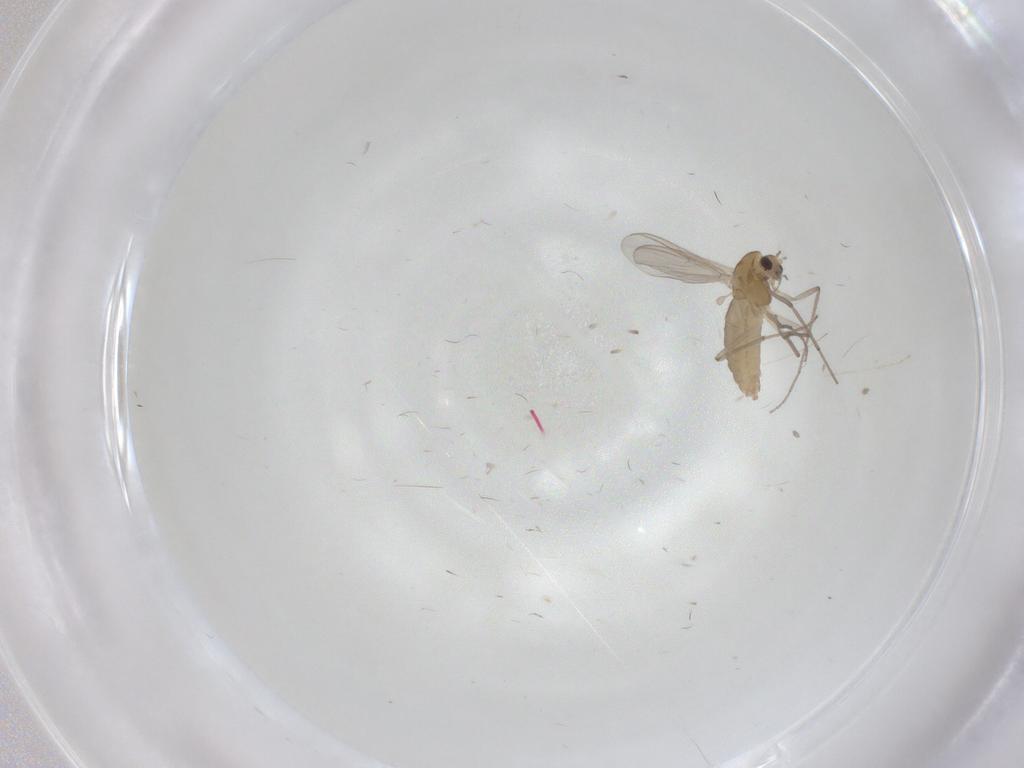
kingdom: Animalia
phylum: Arthropoda
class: Insecta
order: Diptera
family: Chironomidae
